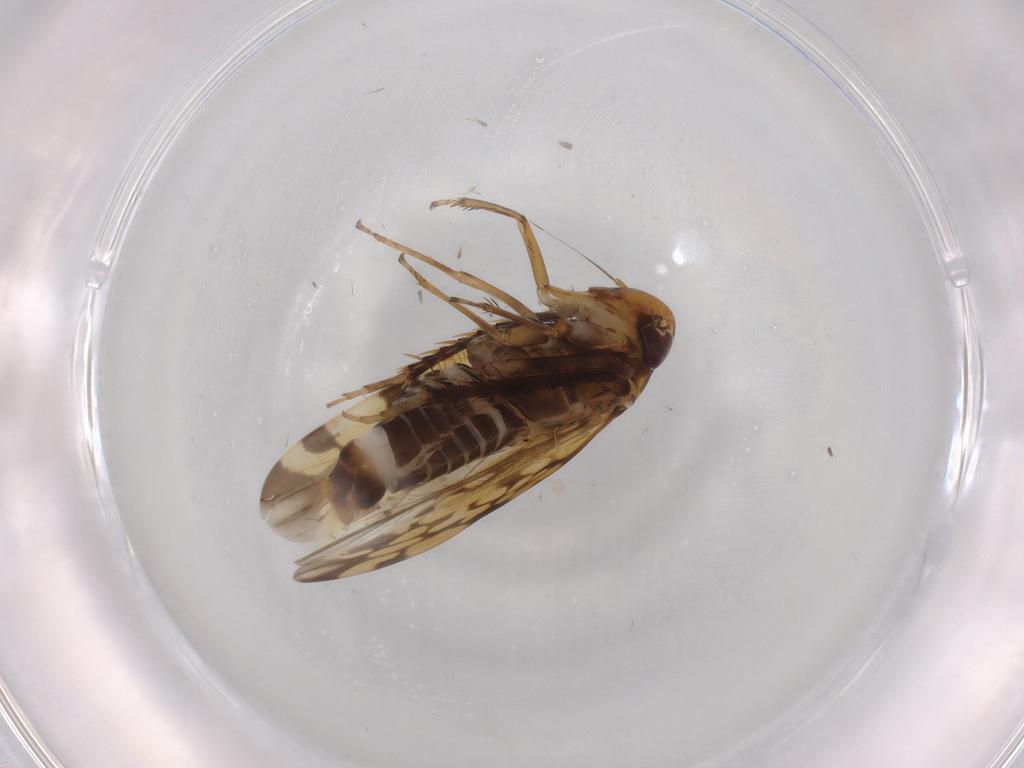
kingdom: Animalia
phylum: Arthropoda
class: Insecta
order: Hemiptera
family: Cicadellidae
